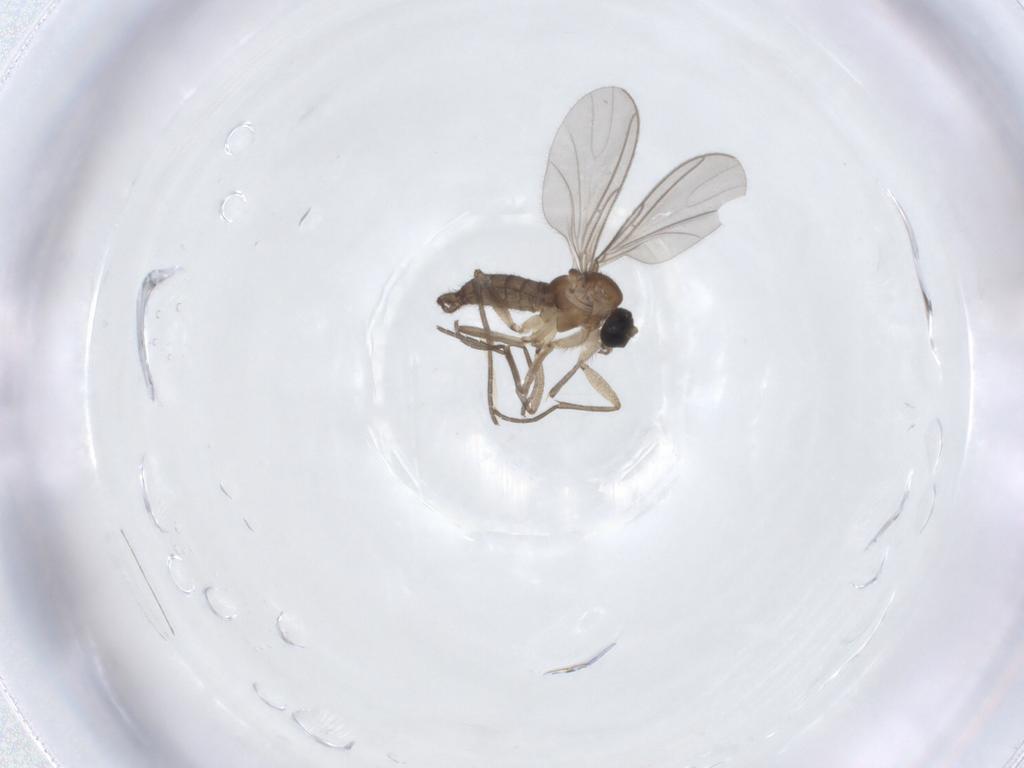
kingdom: Animalia
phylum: Arthropoda
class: Insecta
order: Diptera
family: Sciaridae
